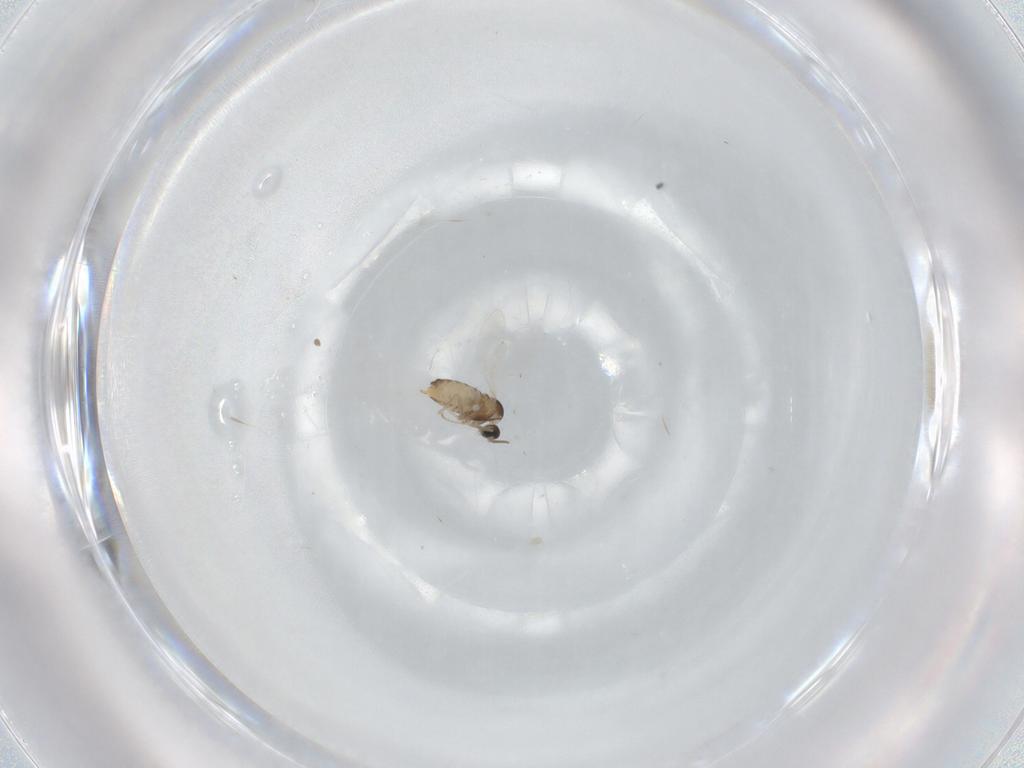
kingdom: Animalia
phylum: Arthropoda
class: Insecta
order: Diptera
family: Cecidomyiidae
